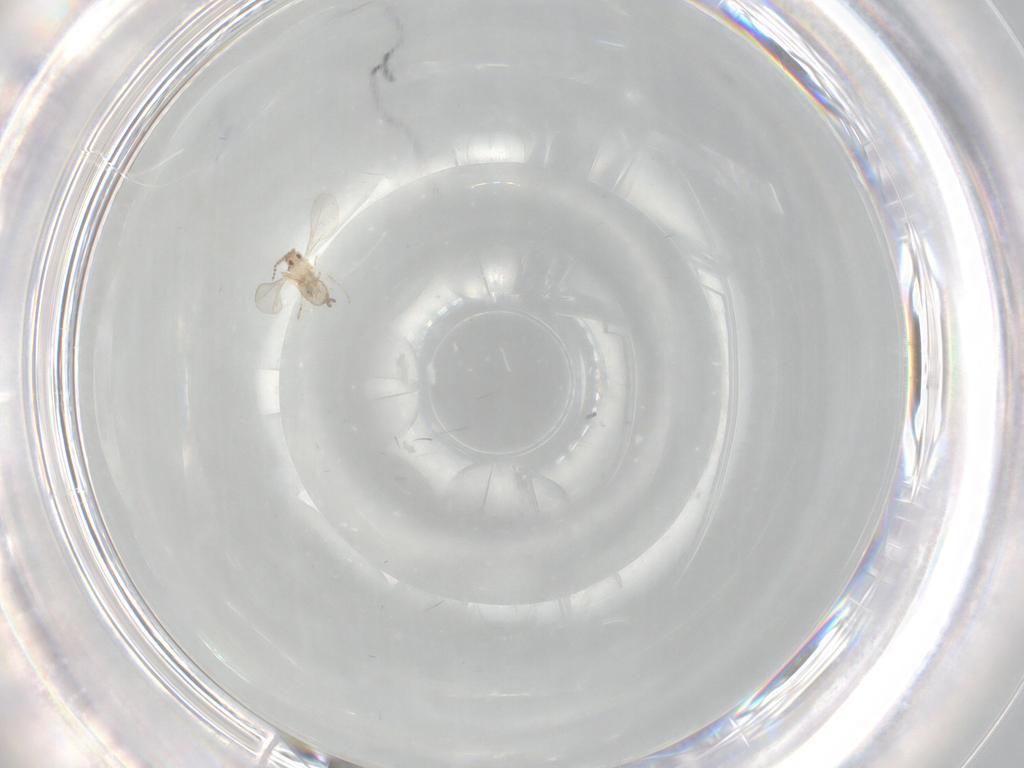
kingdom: Animalia
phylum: Arthropoda
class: Insecta
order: Diptera
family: Cecidomyiidae
